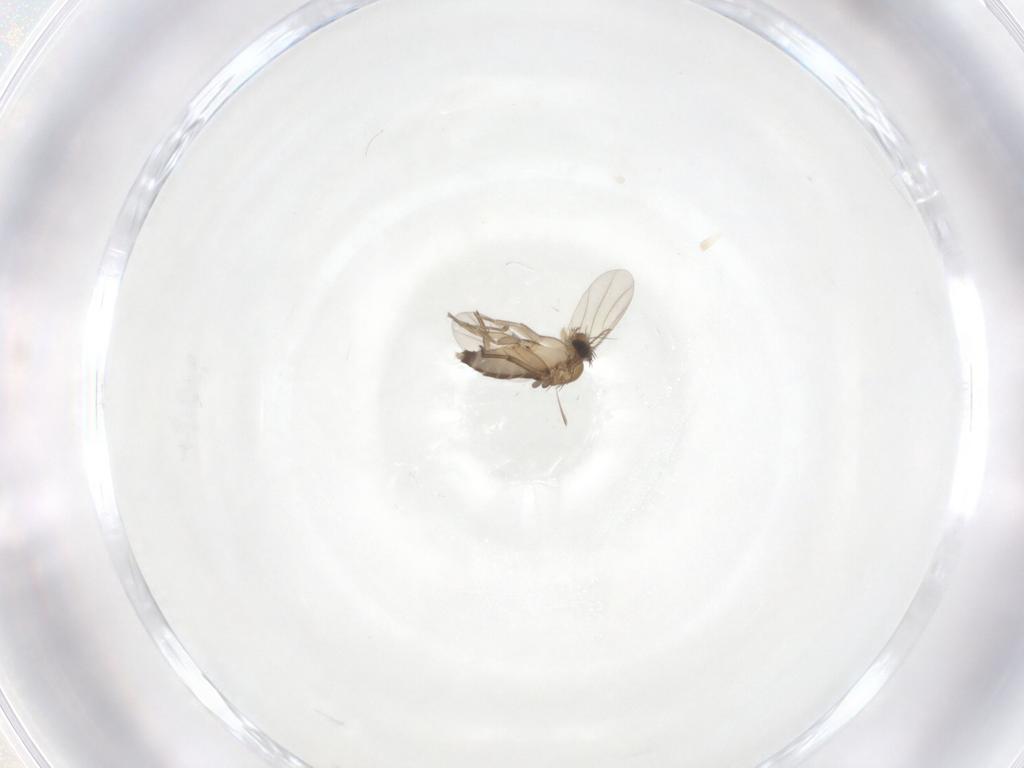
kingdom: Animalia
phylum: Arthropoda
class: Insecta
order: Diptera
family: Phoridae
